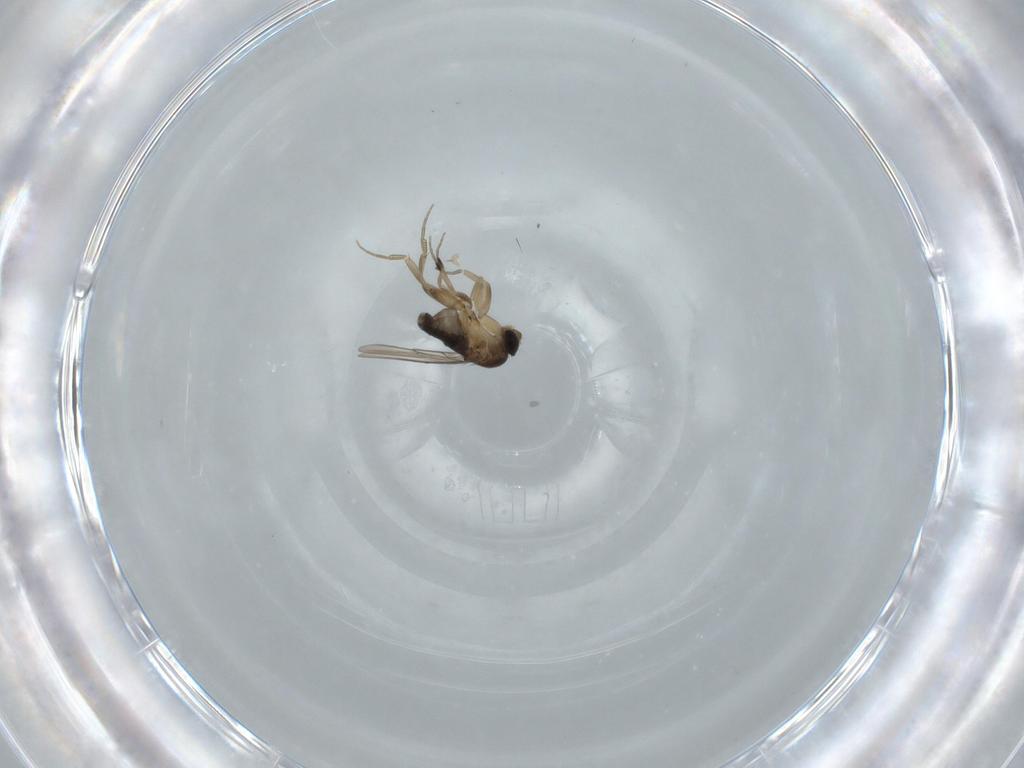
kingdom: Animalia
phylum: Arthropoda
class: Insecta
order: Diptera
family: Phoridae
